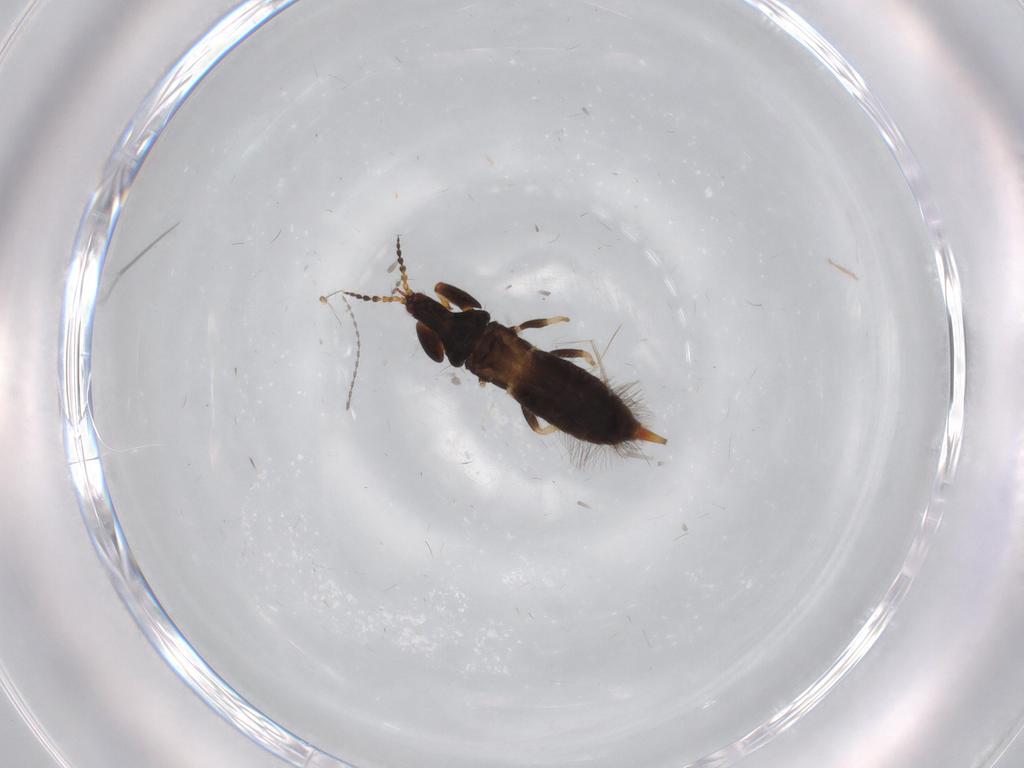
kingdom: Animalia
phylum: Arthropoda
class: Insecta
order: Thysanoptera
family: Phlaeothripidae
